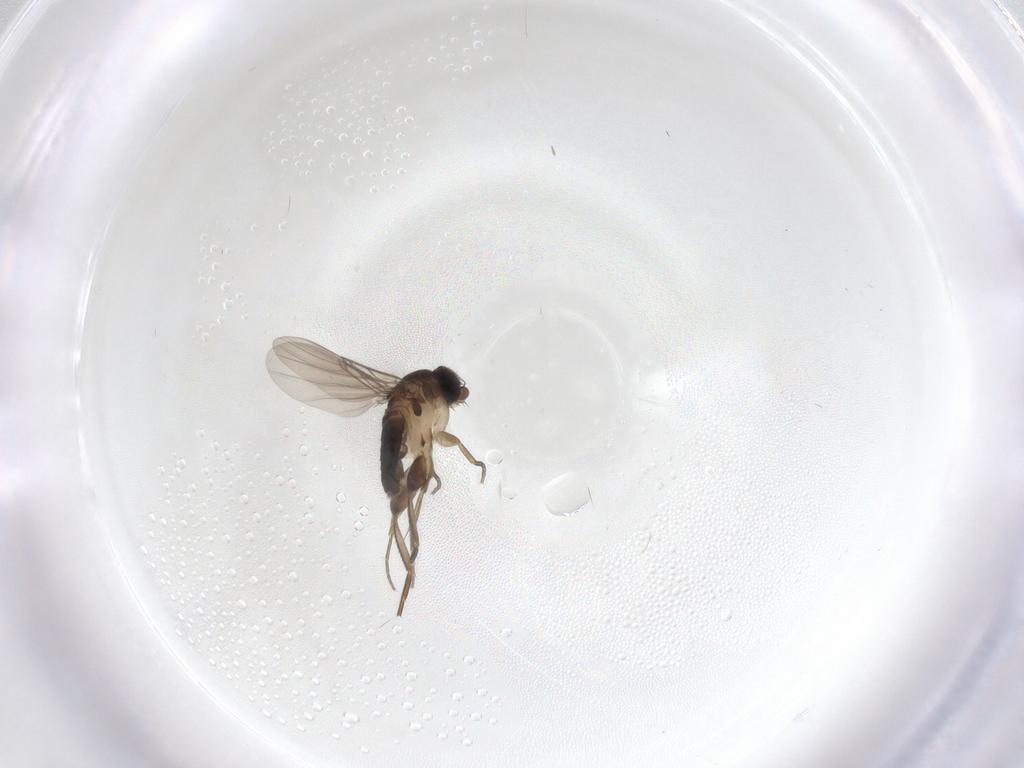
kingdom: Animalia
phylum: Arthropoda
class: Insecta
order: Diptera
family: Phoridae
